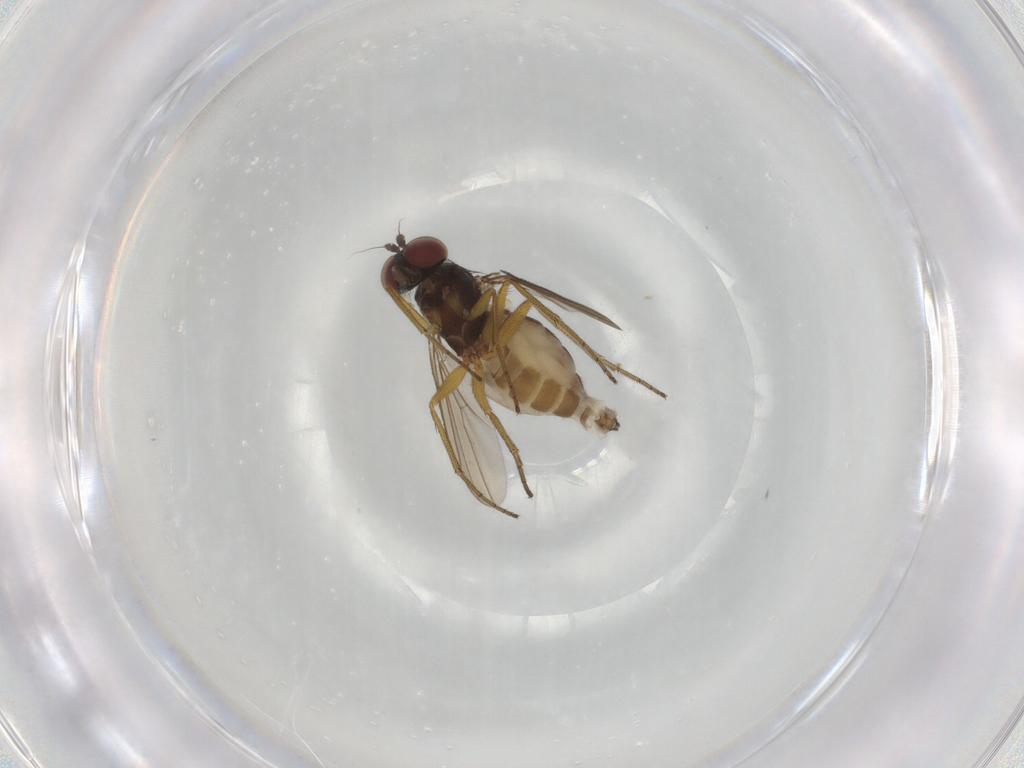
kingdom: Animalia
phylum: Arthropoda
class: Insecta
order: Diptera
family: Dolichopodidae
